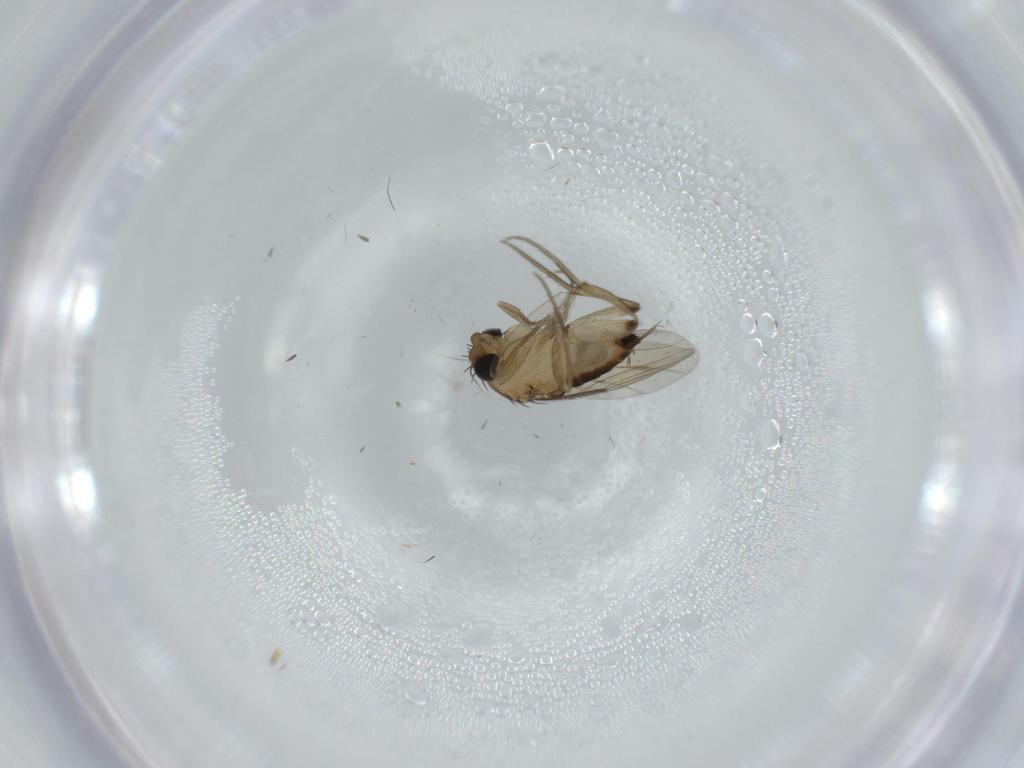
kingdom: Animalia
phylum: Arthropoda
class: Insecta
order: Diptera
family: Phoridae
